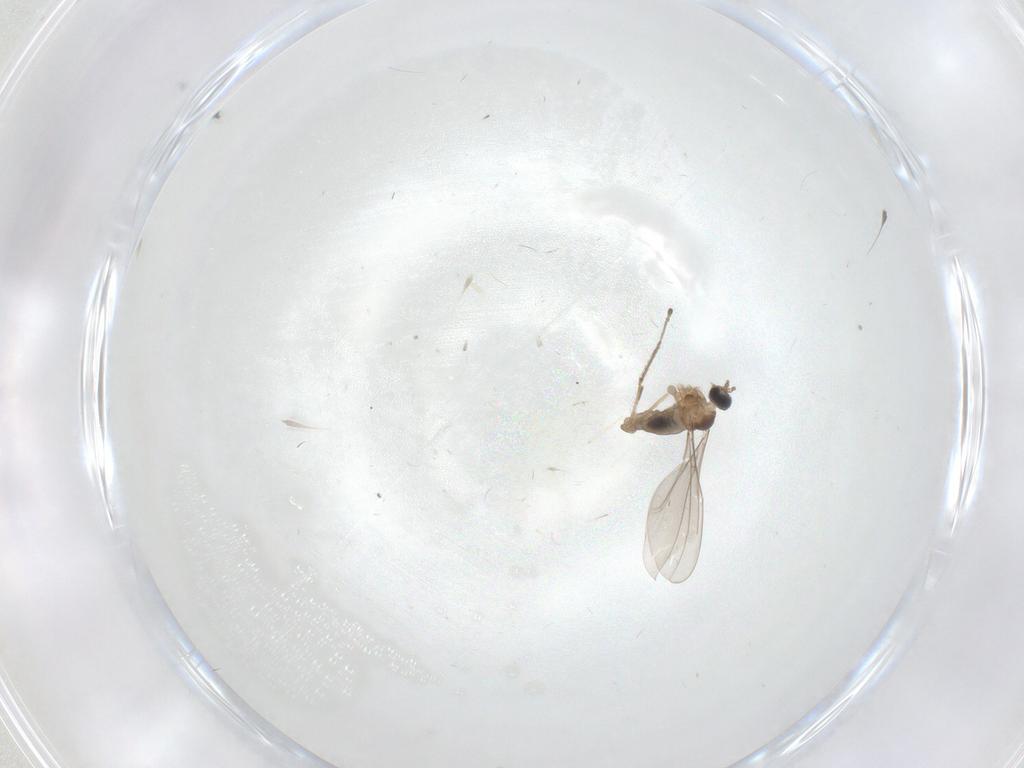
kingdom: Animalia
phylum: Arthropoda
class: Insecta
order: Diptera
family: Cecidomyiidae
